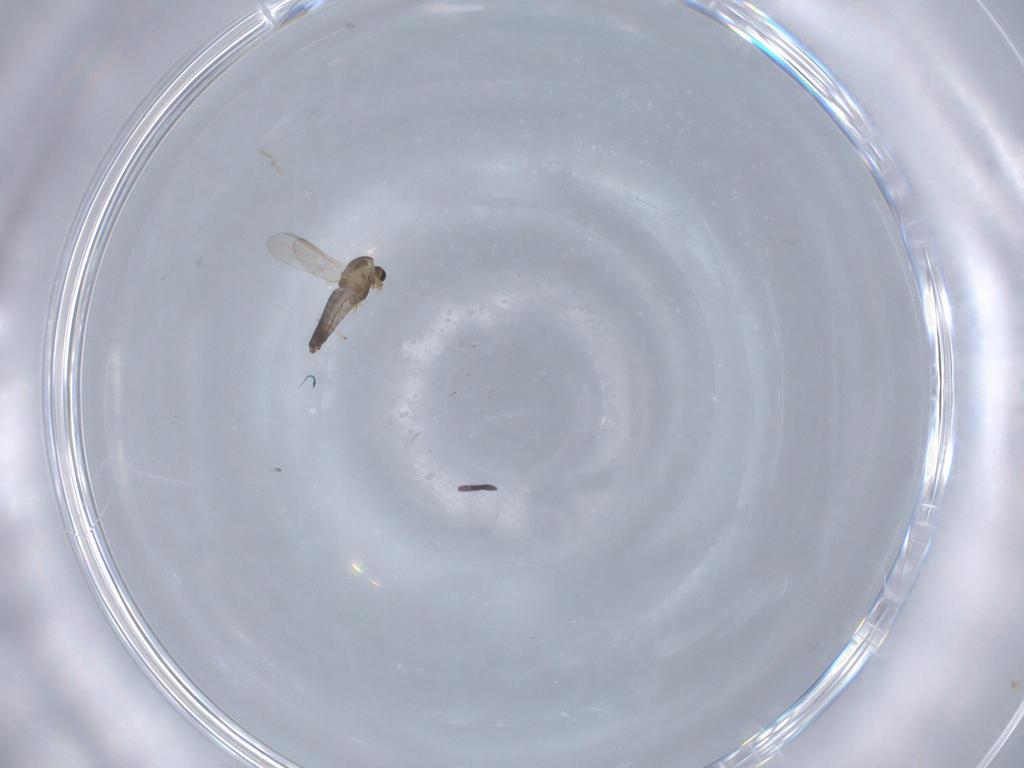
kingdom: Animalia
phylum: Arthropoda
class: Insecta
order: Diptera
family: Chironomidae
